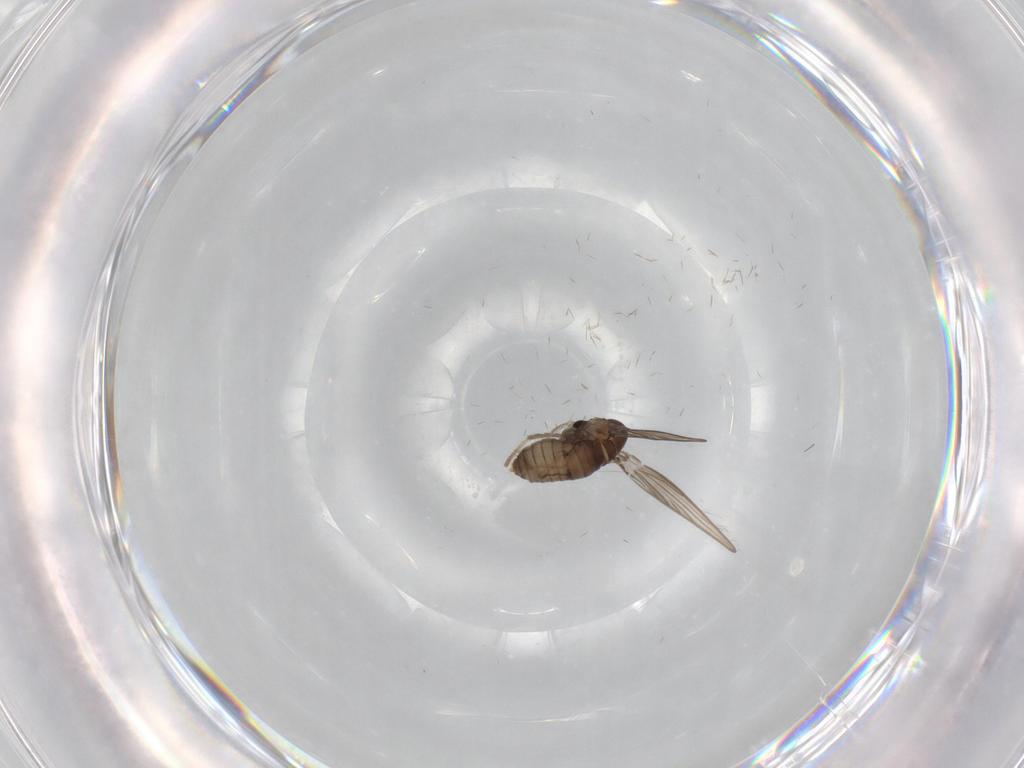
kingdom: Animalia
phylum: Arthropoda
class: Insecta
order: Diptera
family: Psychodidae
